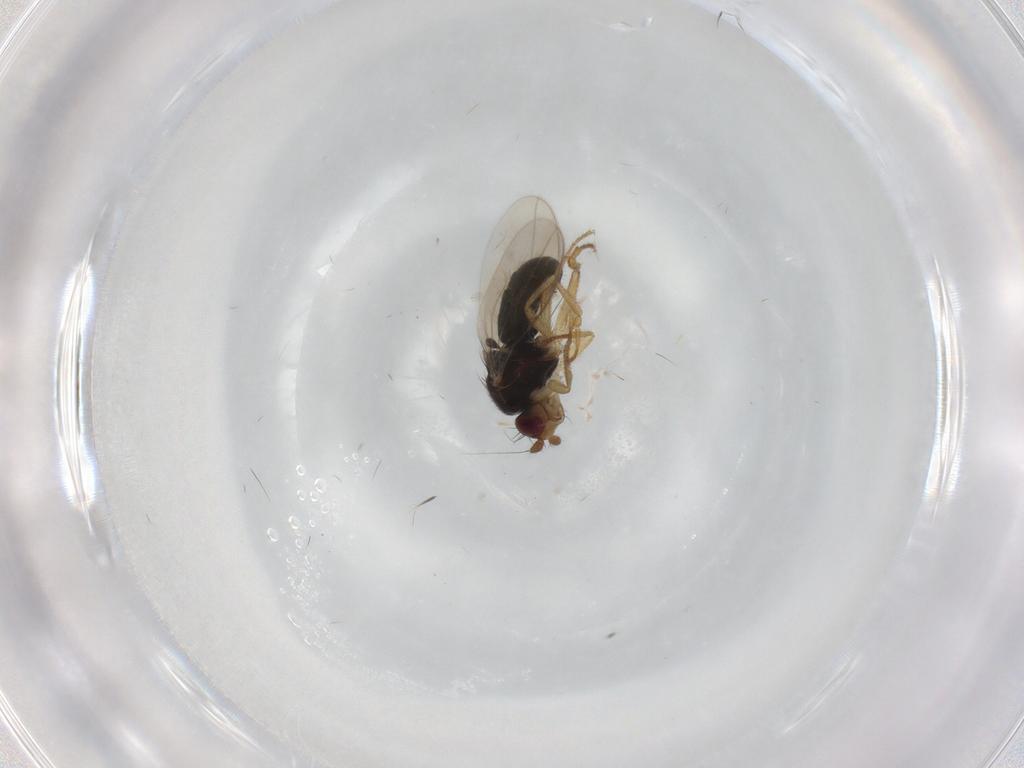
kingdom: Animalia
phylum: Arthropoda
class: Insecta
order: Diptera
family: Sphaeroceridae
